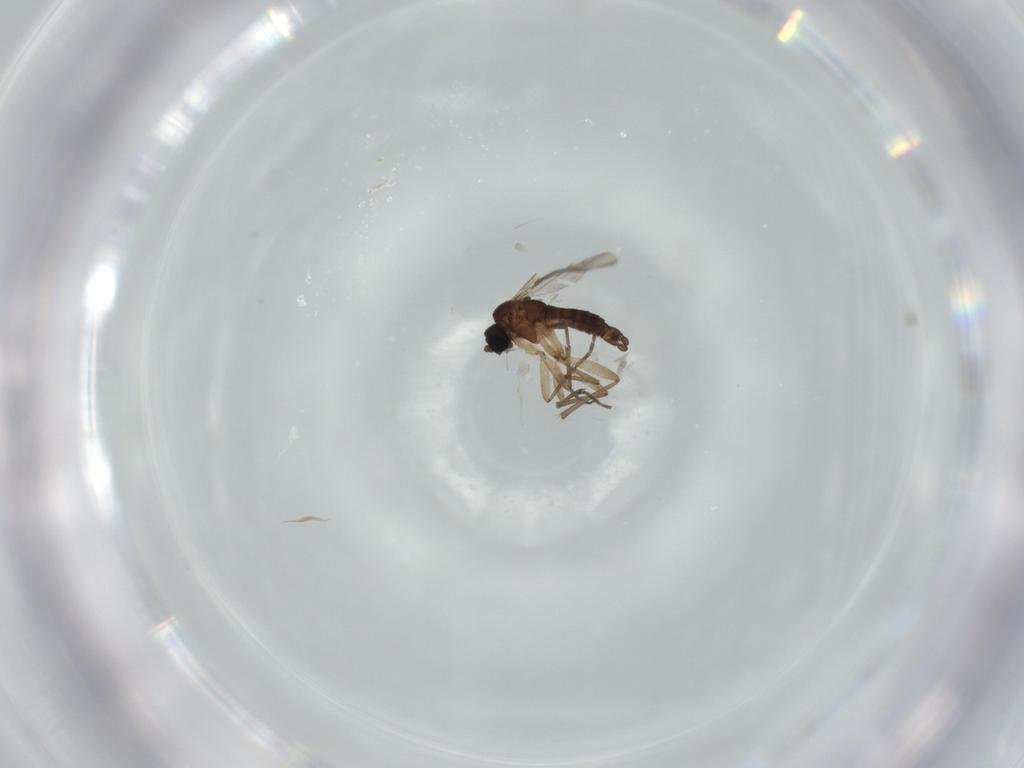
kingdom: Animalia
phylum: Arthropoda
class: Insecta
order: Diptera
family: Sciaridae
